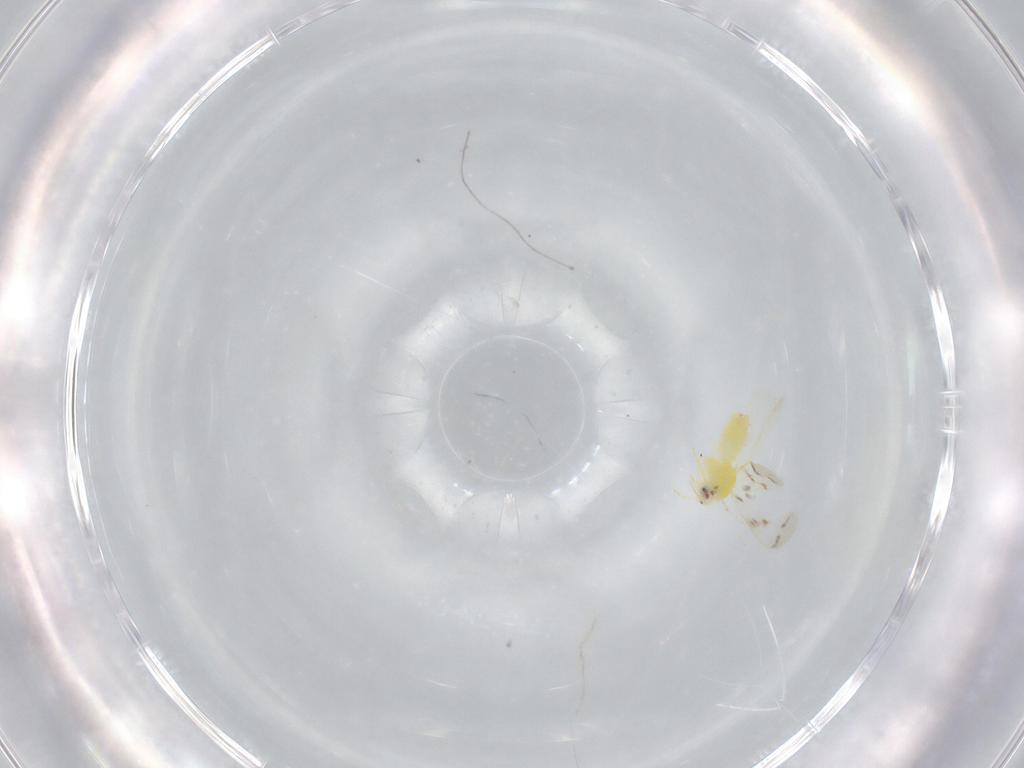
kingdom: Animalia
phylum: Arthropoda
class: Insecta
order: Hemiptera
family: Aleyrodidae
